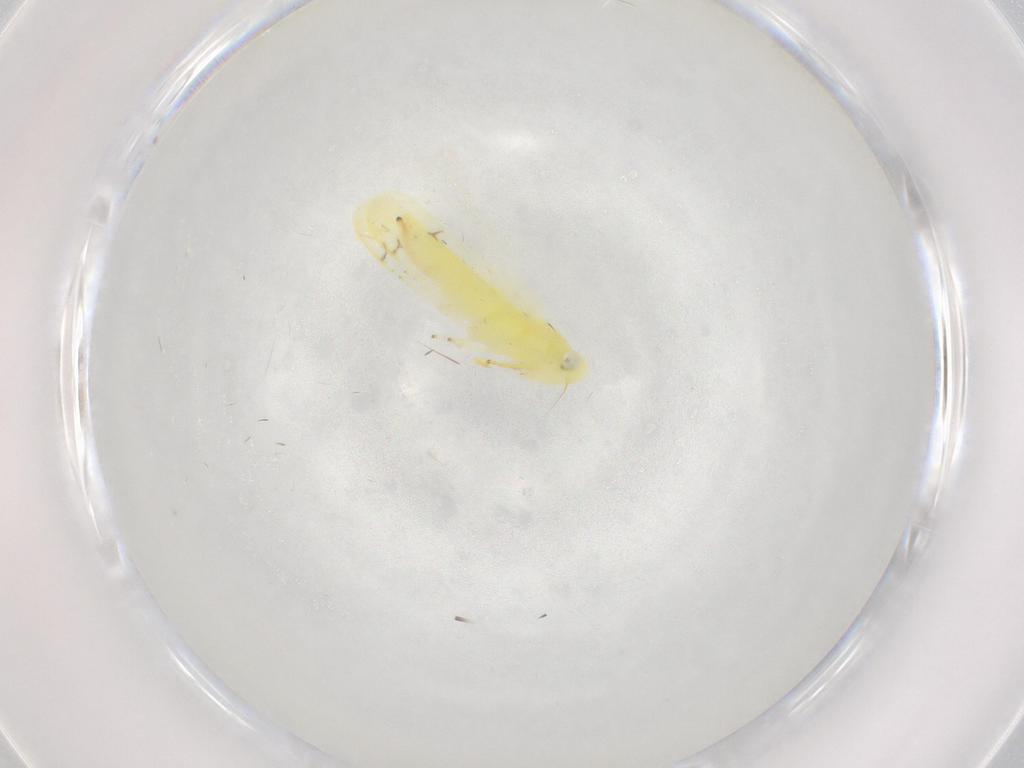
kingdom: Animalia
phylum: Arthropoda
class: Insecta
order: Hemiptera
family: Cicadellidae
